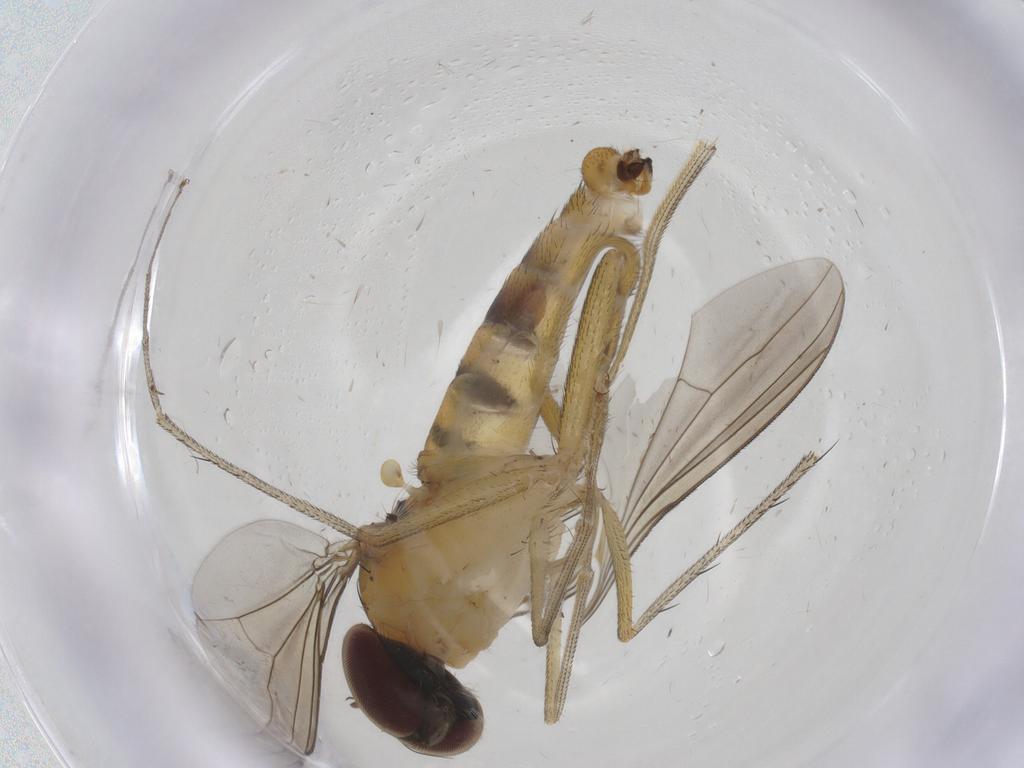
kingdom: Animalia
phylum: Arthropoda
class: Insecta
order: Diptera
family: Dolichopodidae
